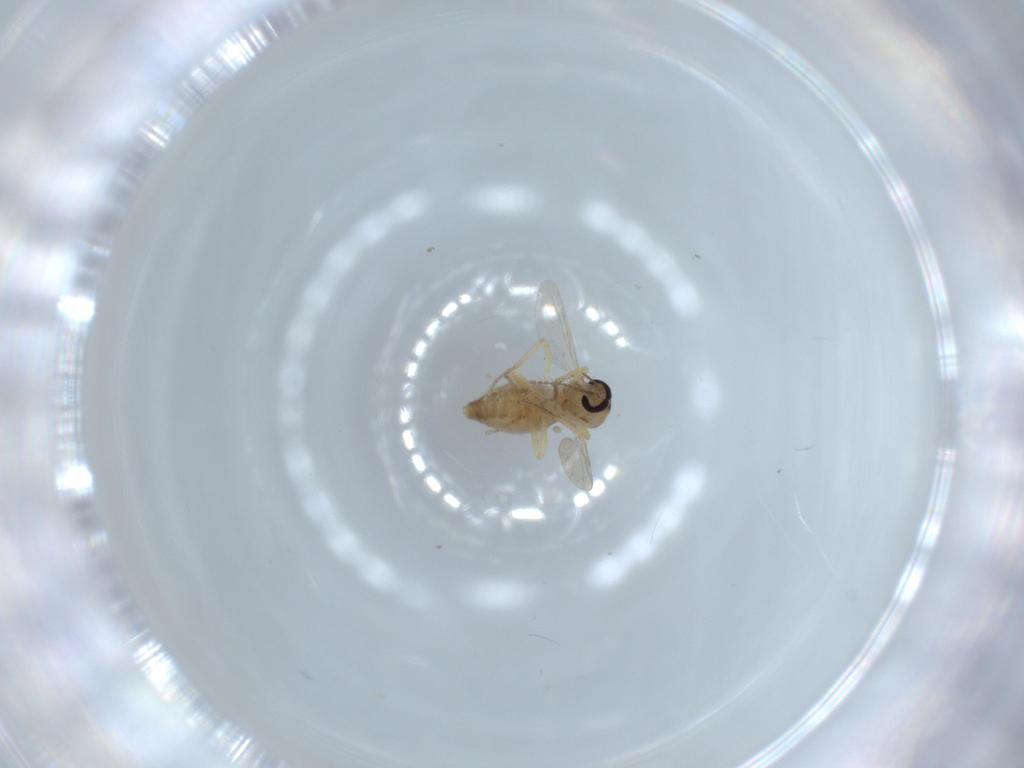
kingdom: Animalia
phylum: Arthropoda
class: Insecta
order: Diptera
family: Ceratopogonidae
